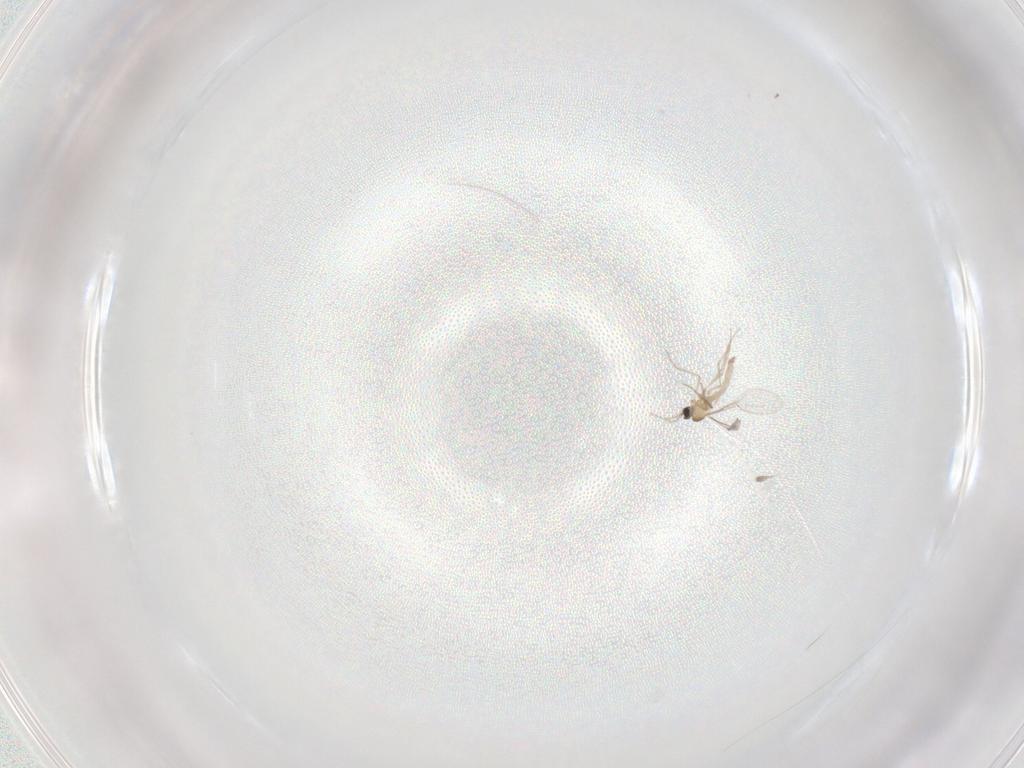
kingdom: Animalia
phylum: Arthropoda
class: Insecta
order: Diptera
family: Cecidomyiidae
